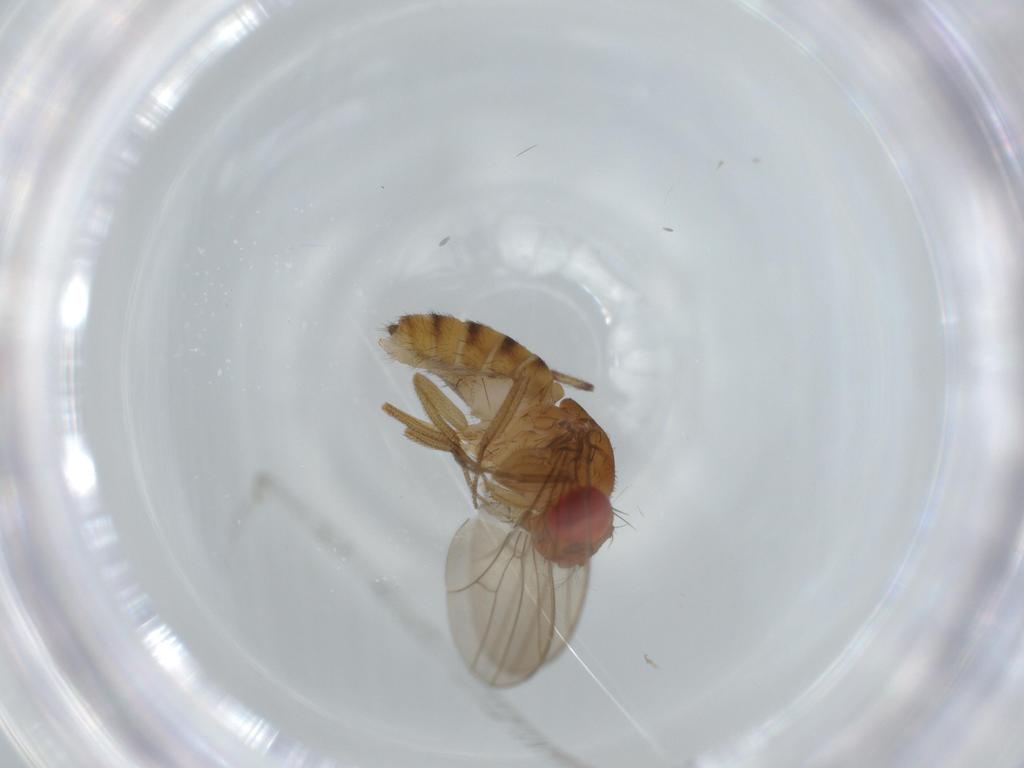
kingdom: Animalia
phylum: Arthropoda
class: Insecta
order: Diptera
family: Drosophilidae
